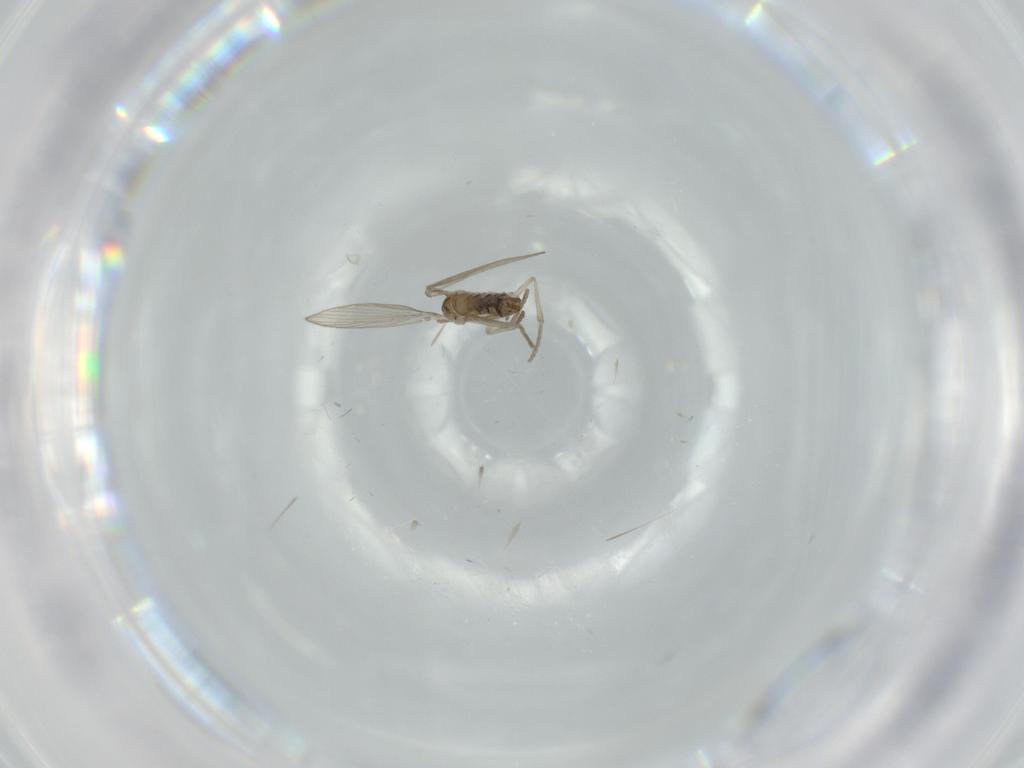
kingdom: Animalia
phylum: Arthropoda
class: Insecta
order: Diptera
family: Psychodidae
